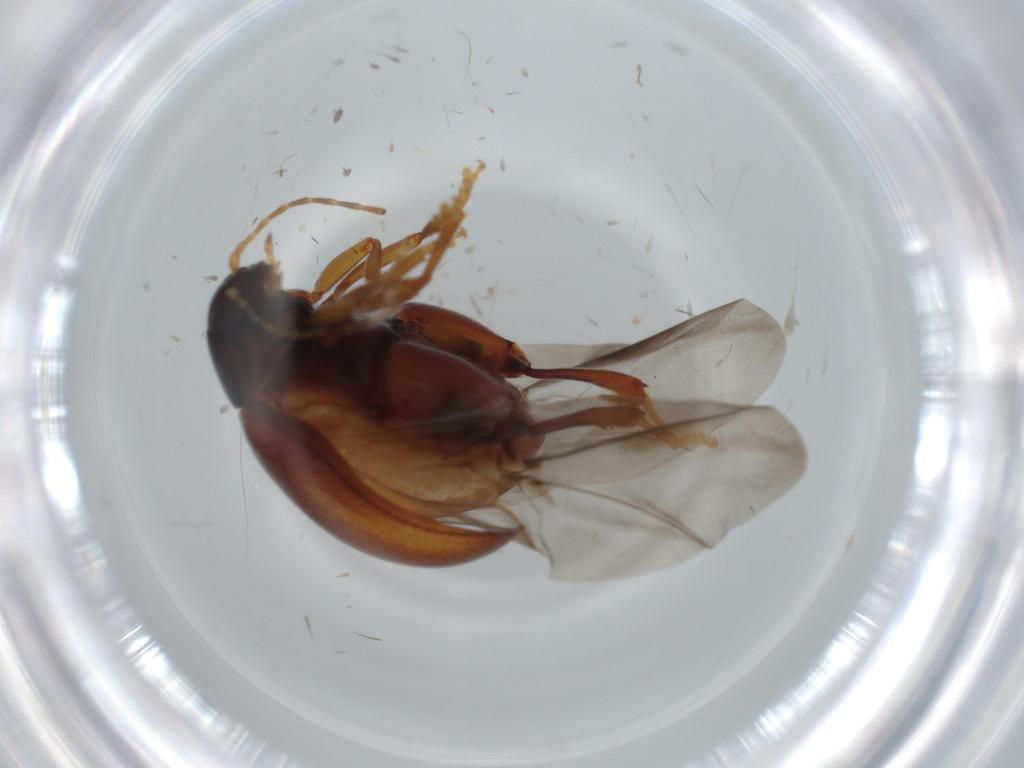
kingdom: Animalia
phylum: Arthropoda
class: Insecta
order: Coleoptera
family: Chrysomelidae
